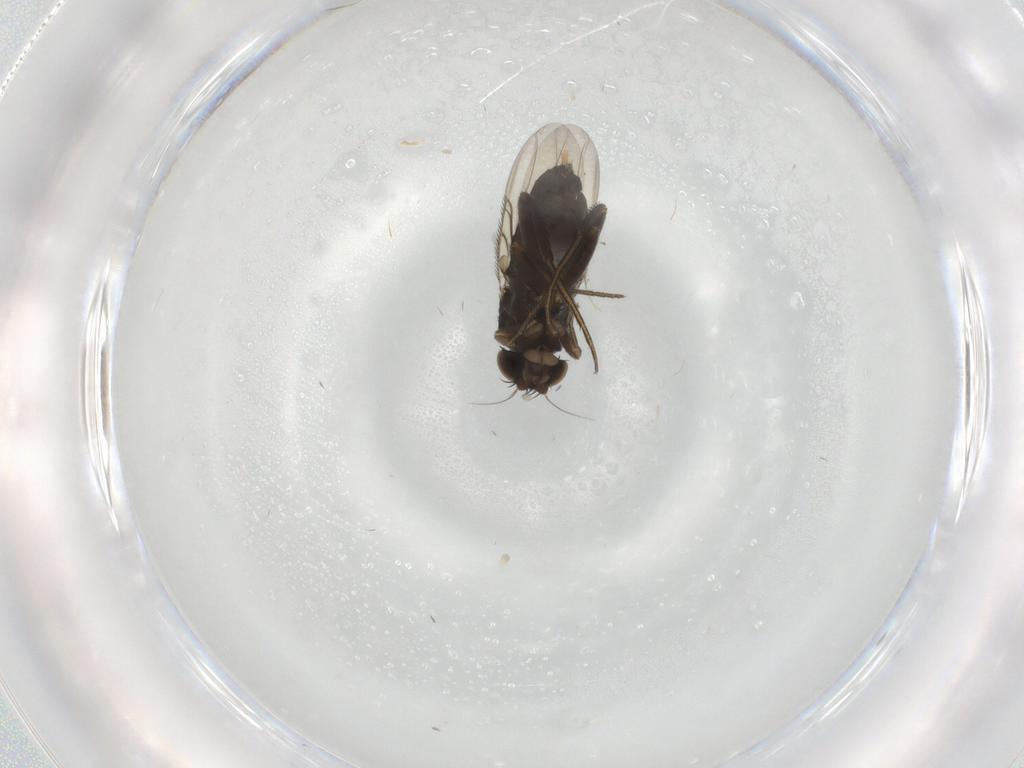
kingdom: Animalia
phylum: Arthropoda
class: Insecta
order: Diptera
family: Phoridae
